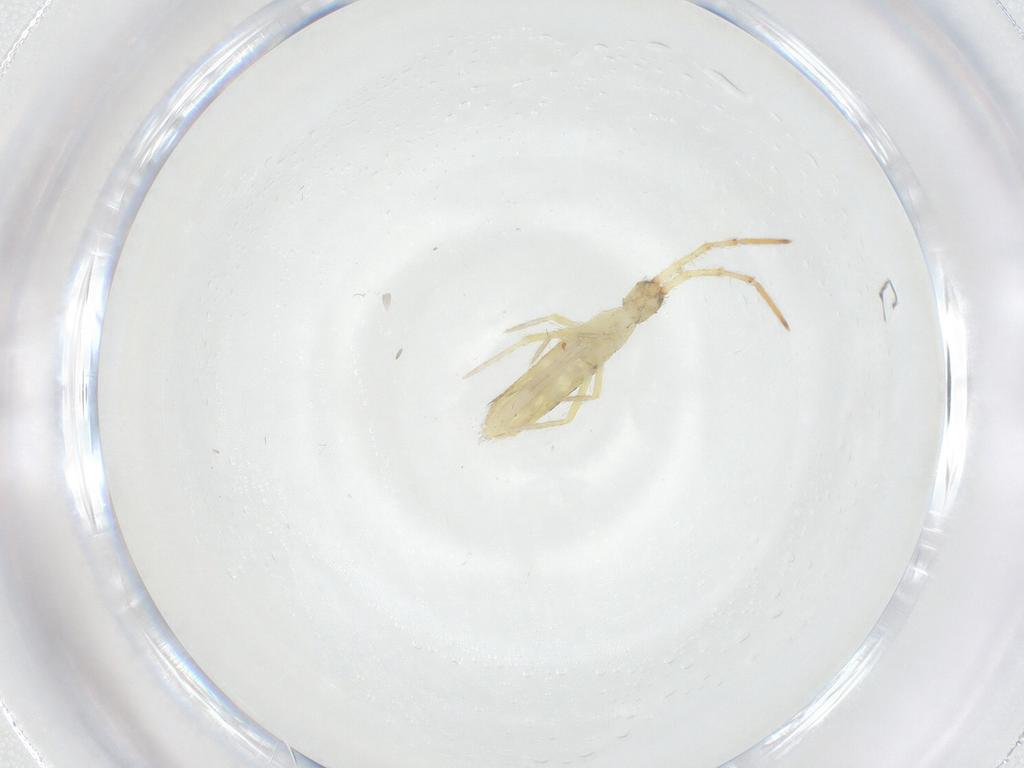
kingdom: Animalia
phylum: Arthropoda
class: Collembola
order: Entomobryomorpha
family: Entomobryidae
